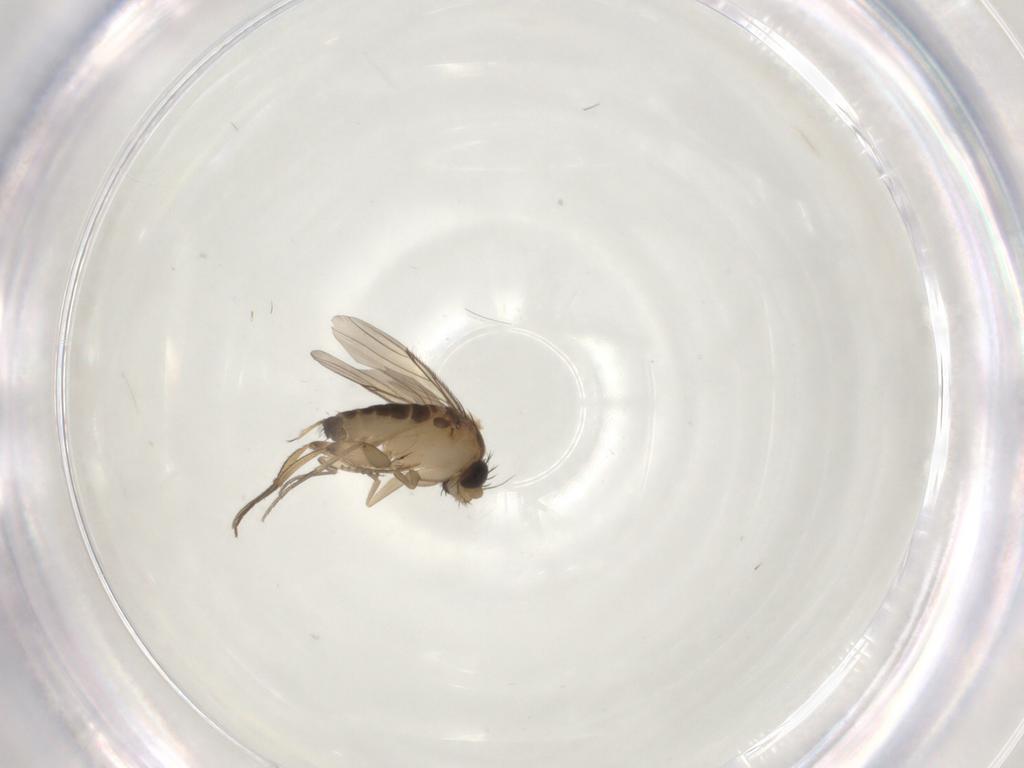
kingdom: Animalia
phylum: Arthropoda
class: Insecta
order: Diptera
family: Phoridae
